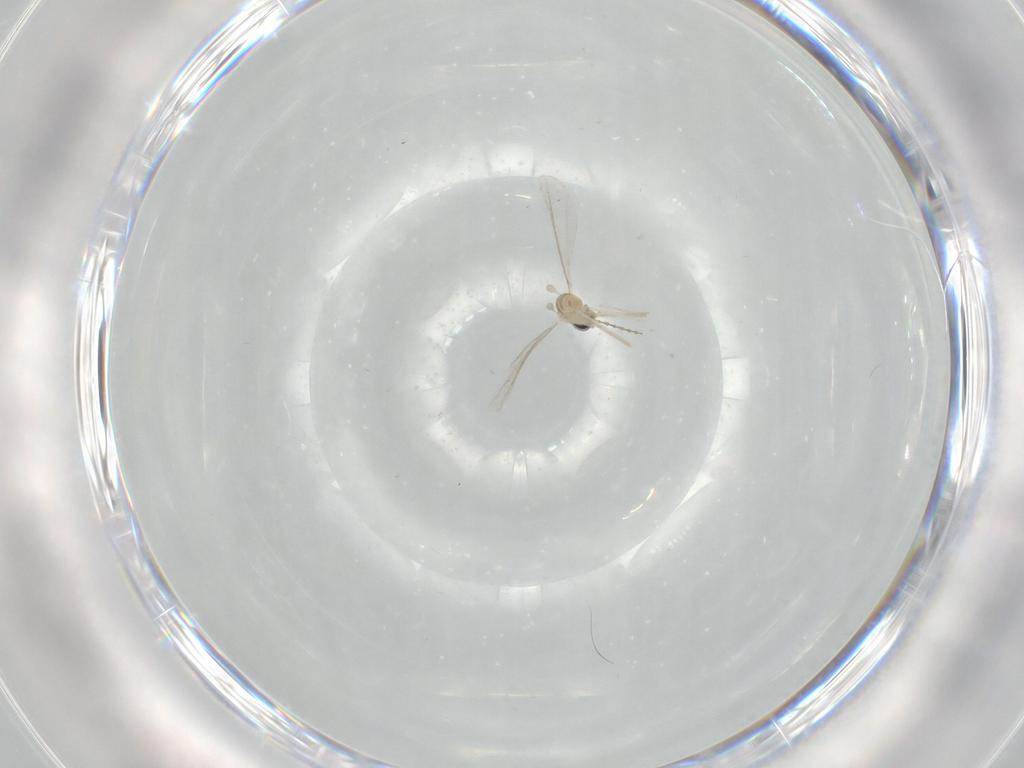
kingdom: Animalia
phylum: Arthropoda
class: Insecta
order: Diptera
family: Cecidomyiidae
